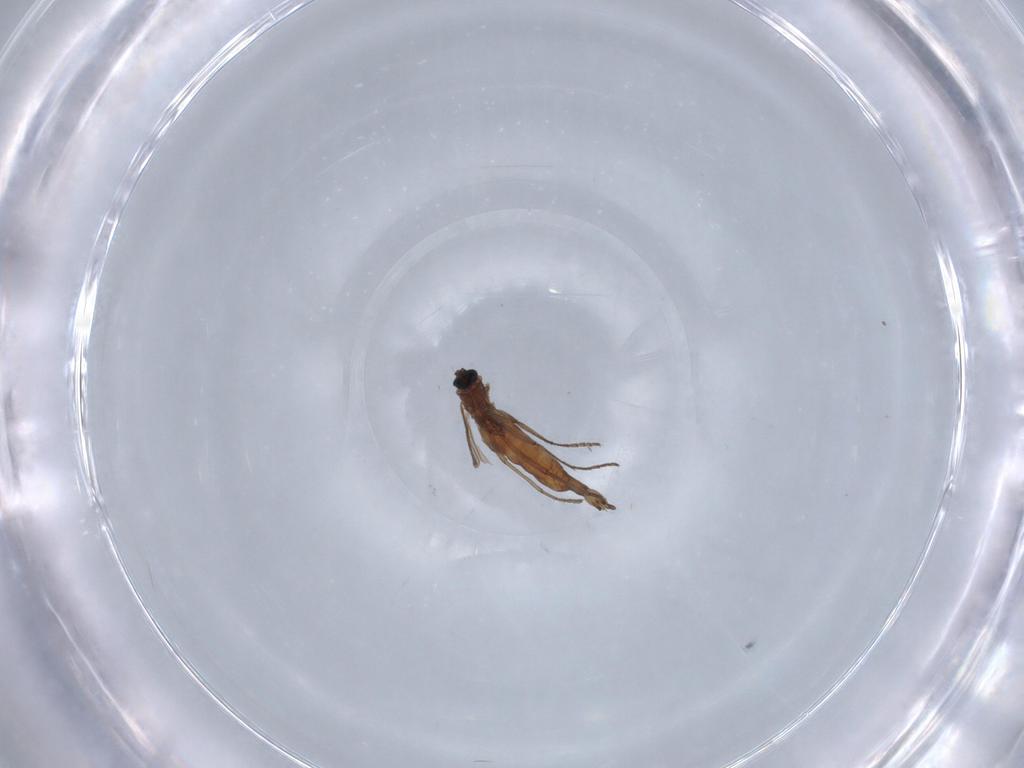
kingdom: Animalia
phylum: Arthropoda
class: Insecta
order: Diptera
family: Sciaridae
